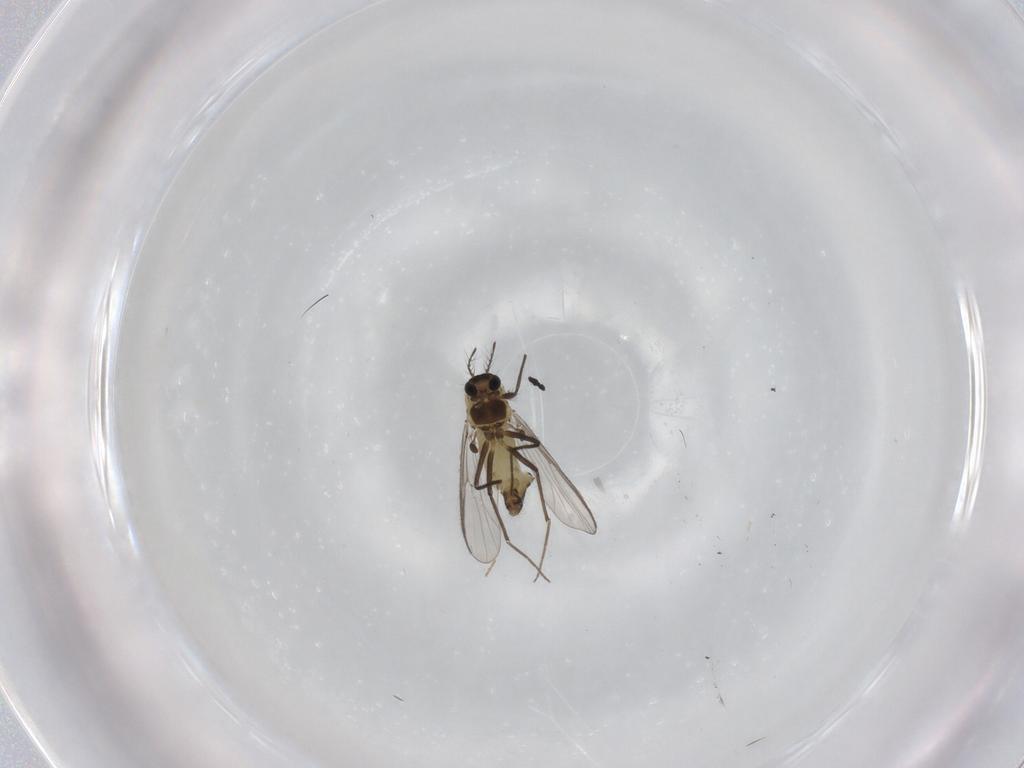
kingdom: Animalia
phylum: Arthropoda
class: Insecta
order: Diptera
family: Chironomidae
